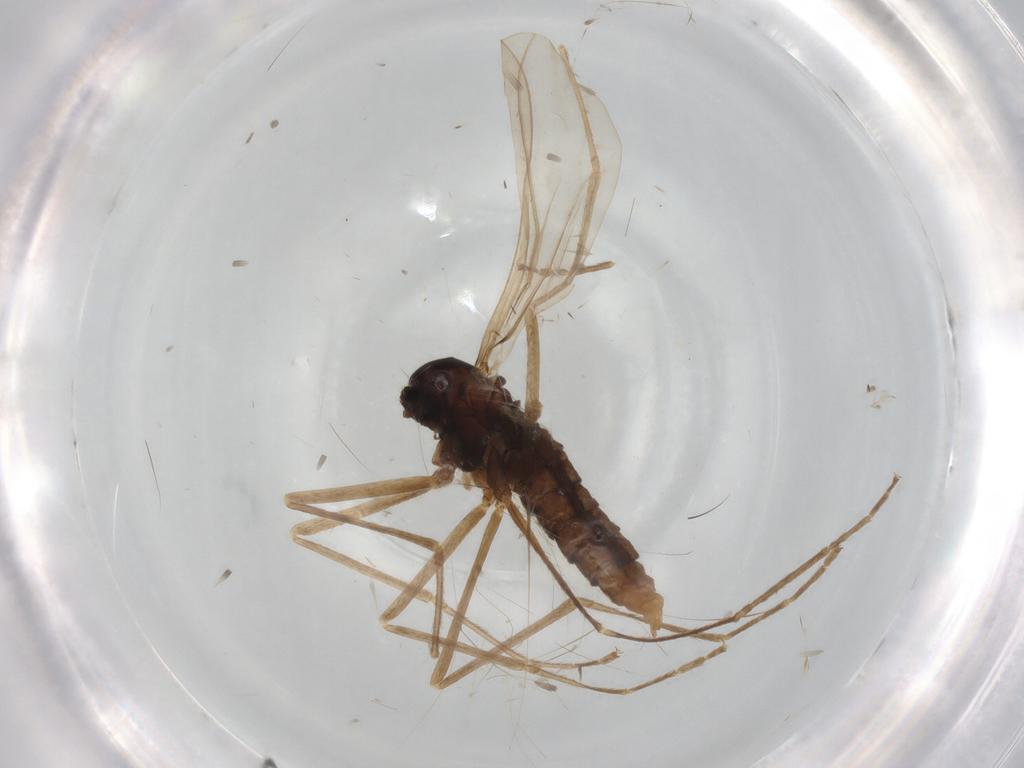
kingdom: Animalia
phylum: Arthropoda
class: Insecta
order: Diptera
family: Cecidomyiidae
